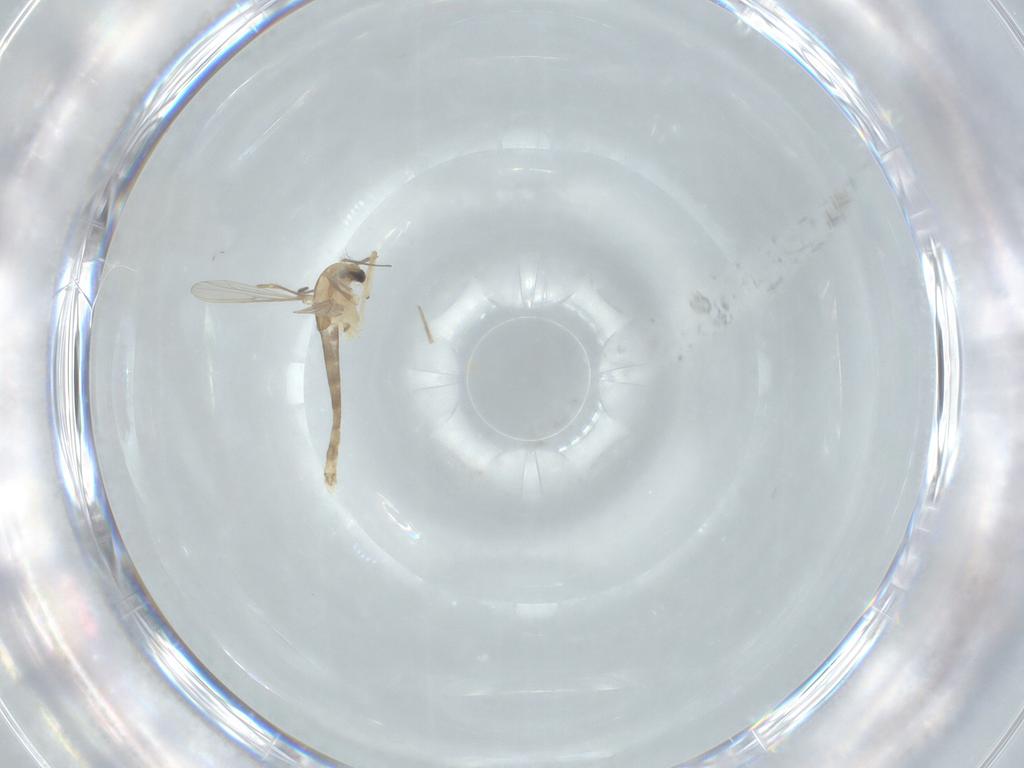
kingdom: Animalia
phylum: Arthropoda
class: Insecta
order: Diptera
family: Chironomidae
